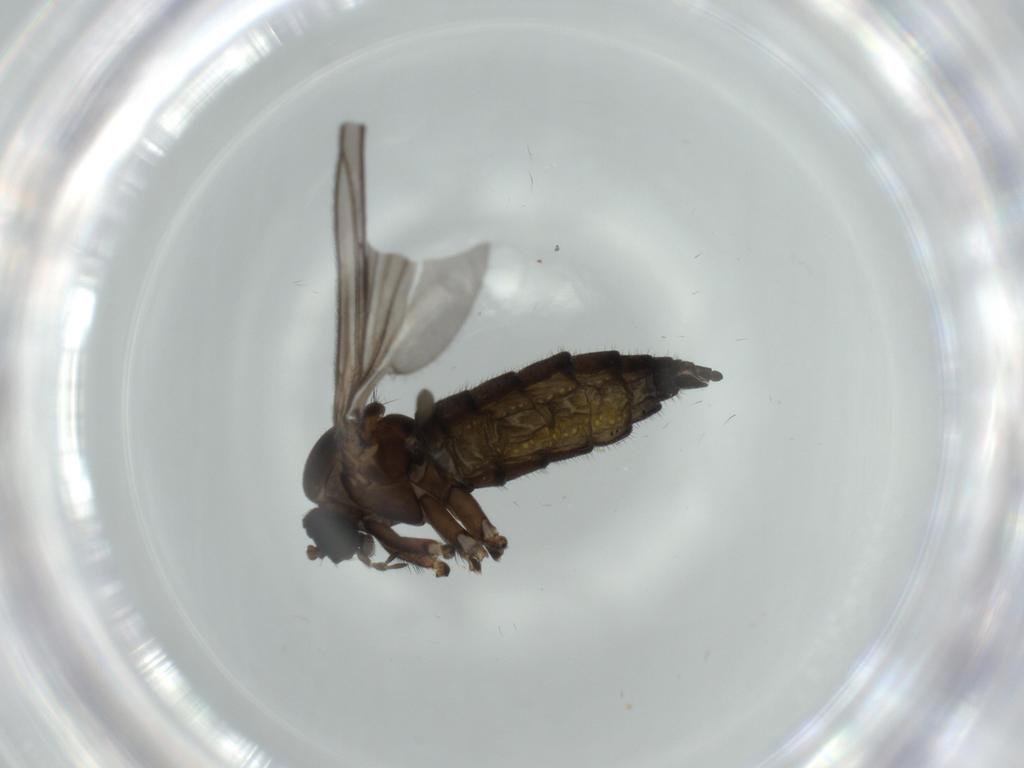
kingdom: Animalia
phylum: Arthropoda
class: Insecta
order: Diptera
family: Sciaridae
